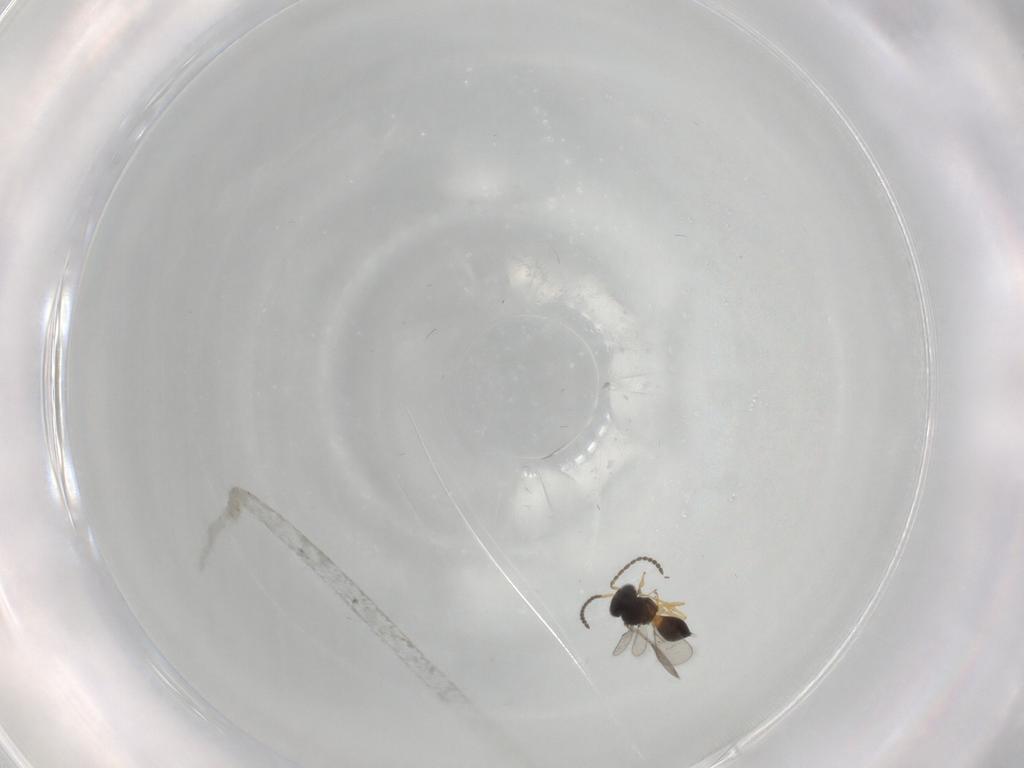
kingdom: Animalia
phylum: Arthropoda
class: Insecta
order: Hymenoptera
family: Scelionidae
